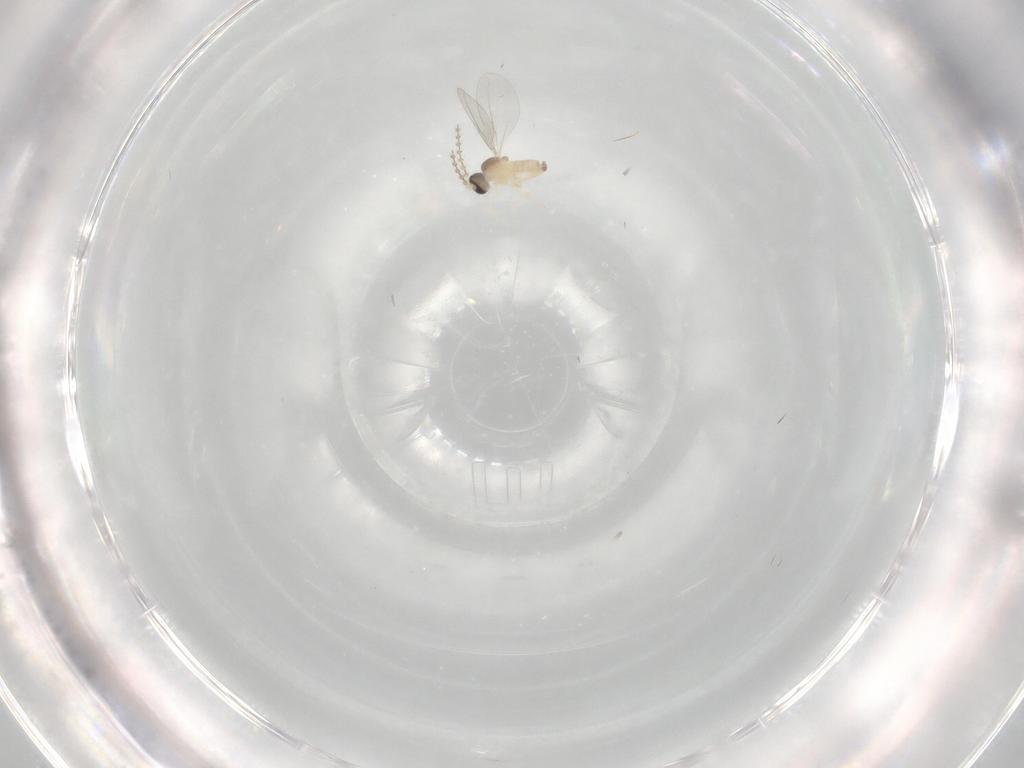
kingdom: Animalia
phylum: Arthropoda
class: Insecta
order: Diptera
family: Cecidomyiidae
